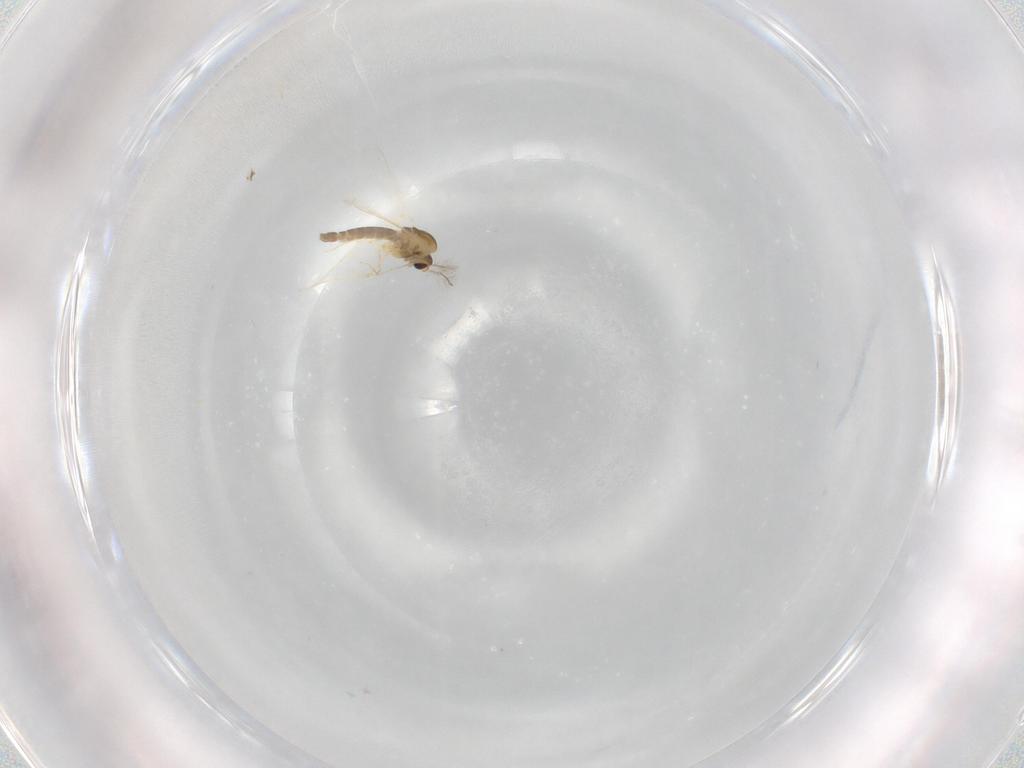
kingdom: Animalia
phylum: Arthropoda
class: Insecta
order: Diptera
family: Chironomidae
